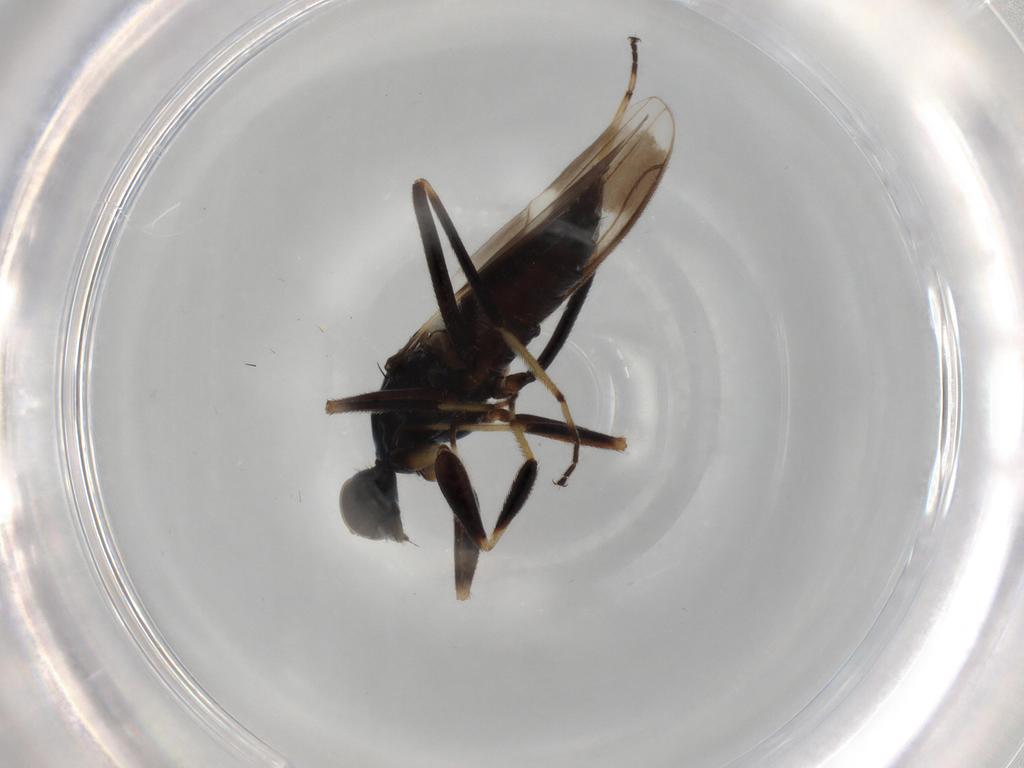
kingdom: Animalia
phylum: Arthropoda
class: Insecta
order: Diptera
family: Hybotidae
